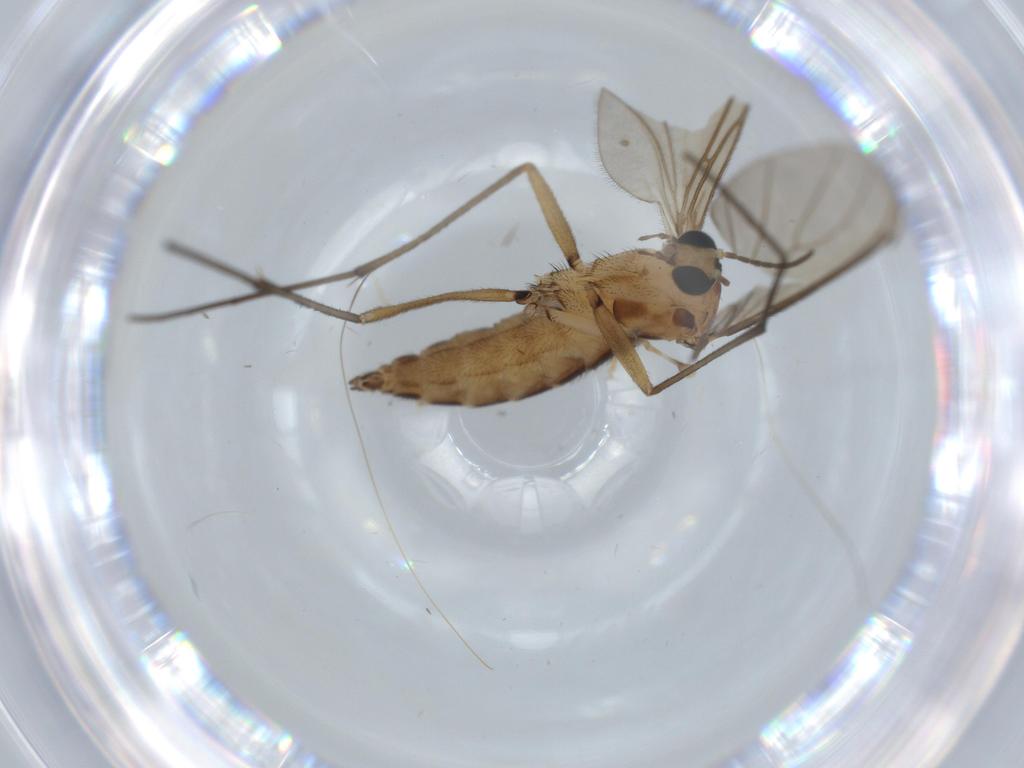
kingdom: Animalia
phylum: Arthropoda
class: Insecta
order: Diptera
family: Sciaridae
